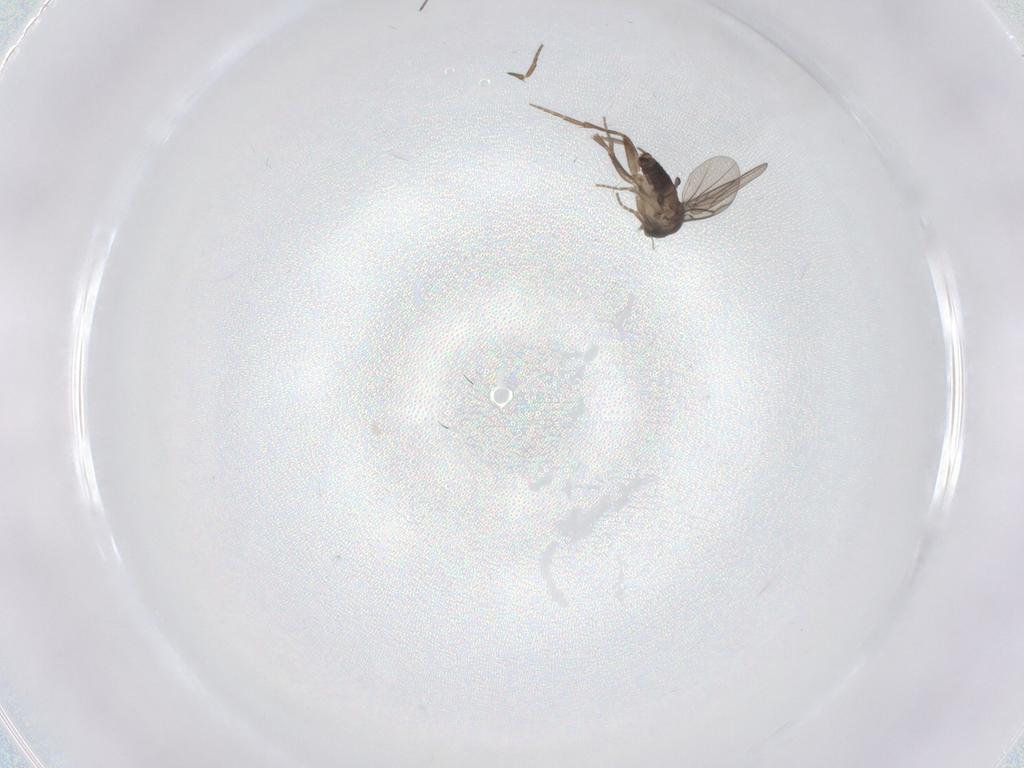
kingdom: Animalia
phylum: Arthropoda
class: Insecta
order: Diptera
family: Phoridae
